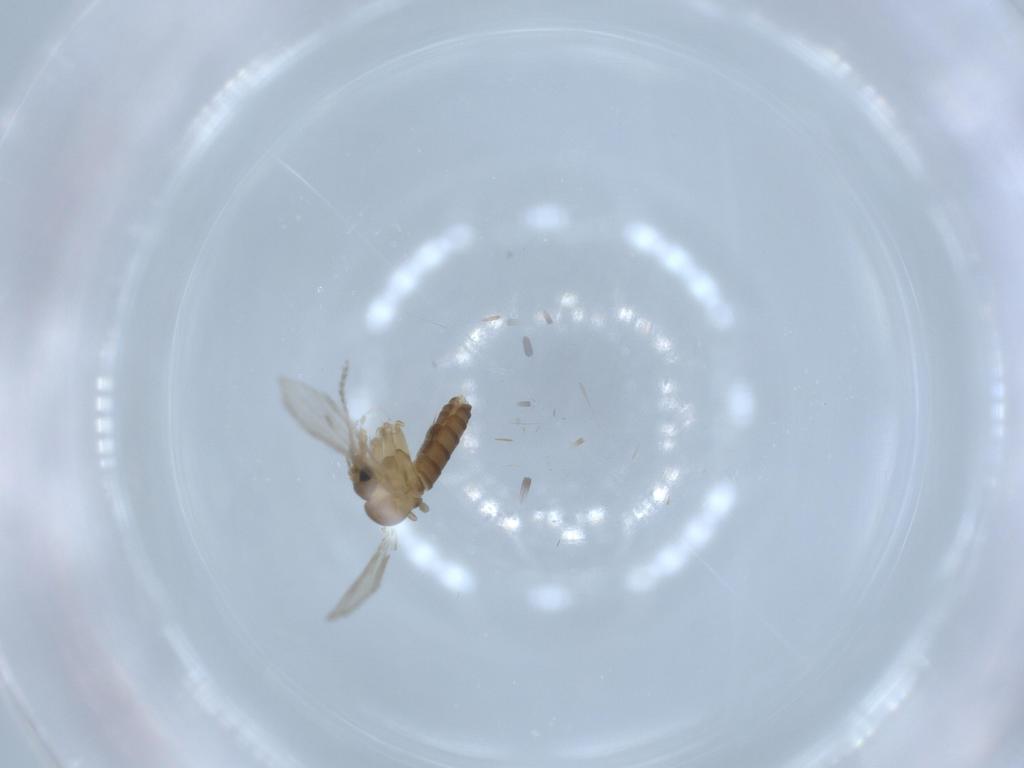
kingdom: Animalia
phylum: Arthropoda
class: Insecta
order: Diptera
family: Psychodidae
